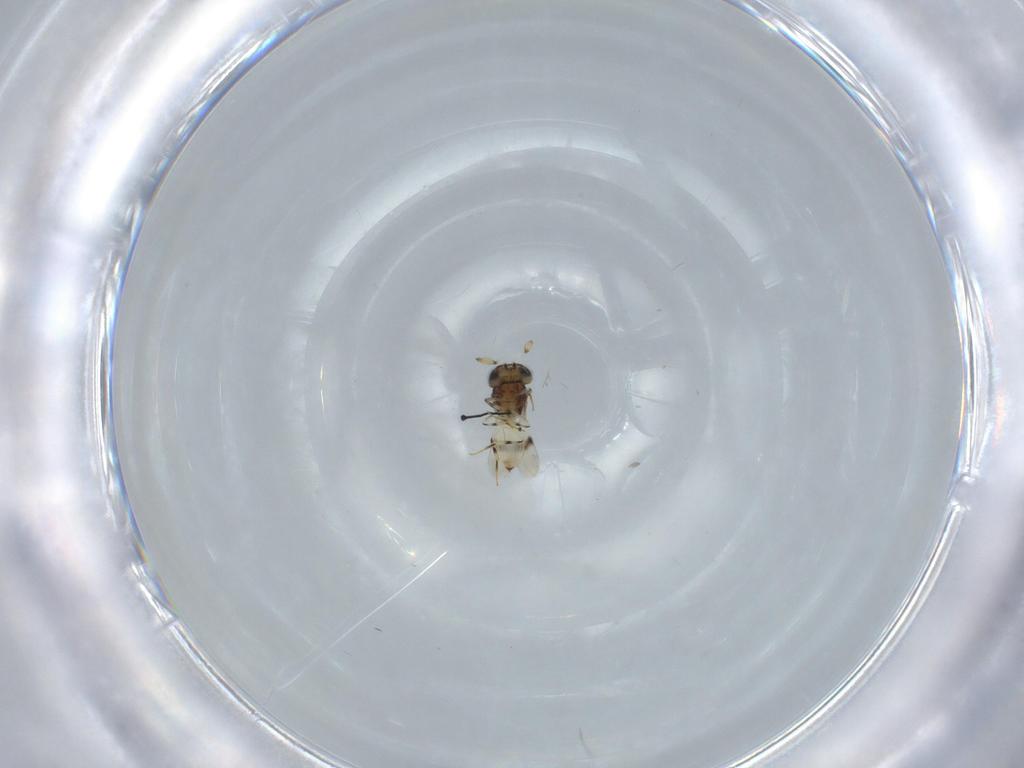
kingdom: Animalia
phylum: Arthropoda
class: Insecta
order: Hymenoptera
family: Scelionidae
